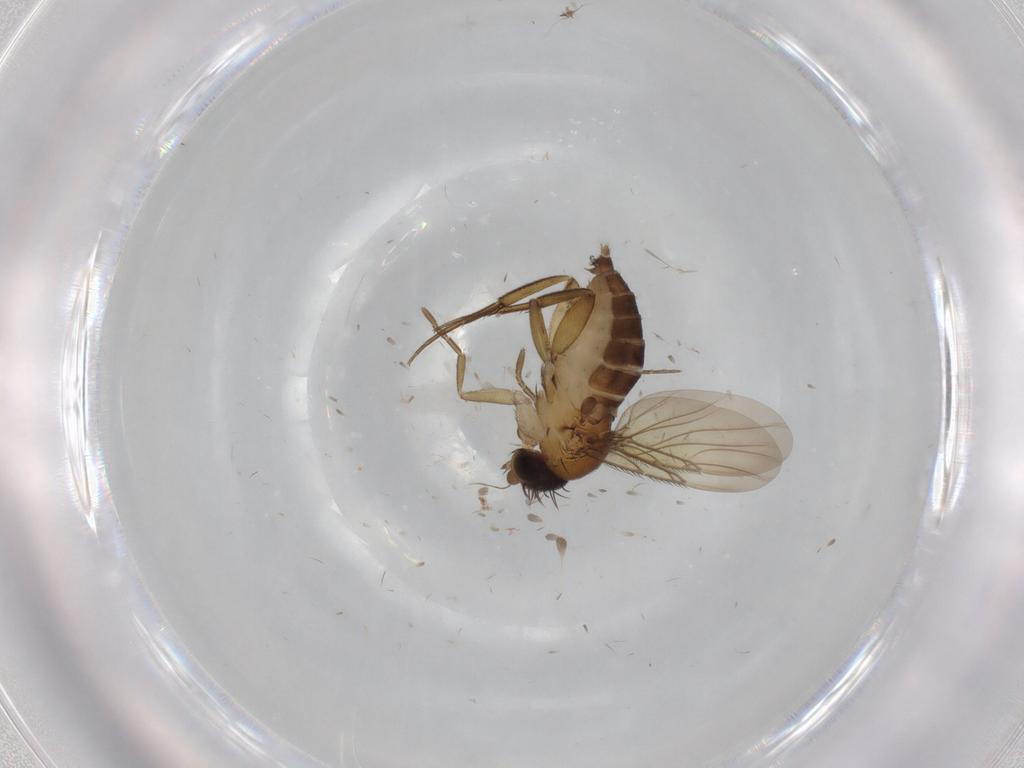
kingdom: Animalia
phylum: Arthropoda
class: Insecta
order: Diptera
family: Phoridae
